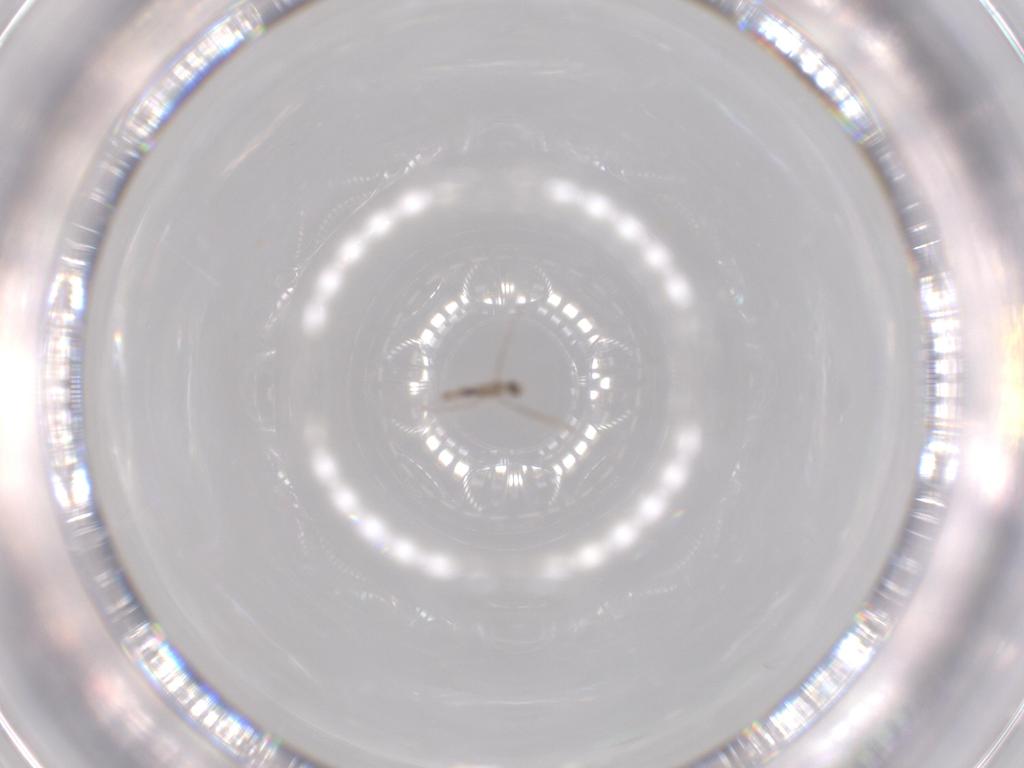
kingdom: Animalia
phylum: Arthropoda
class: Insecta
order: Diptera
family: Cecidomyiidae
